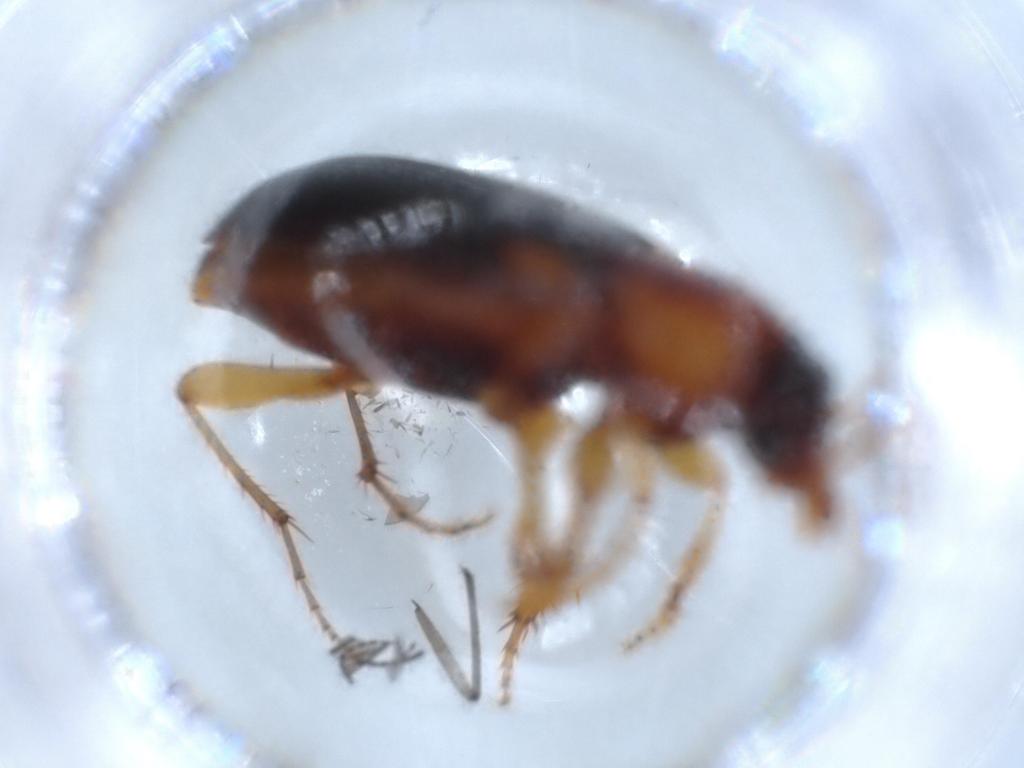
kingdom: Animalia
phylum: Arthropoda
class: Insecta
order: Coleoptera
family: Carabidae
